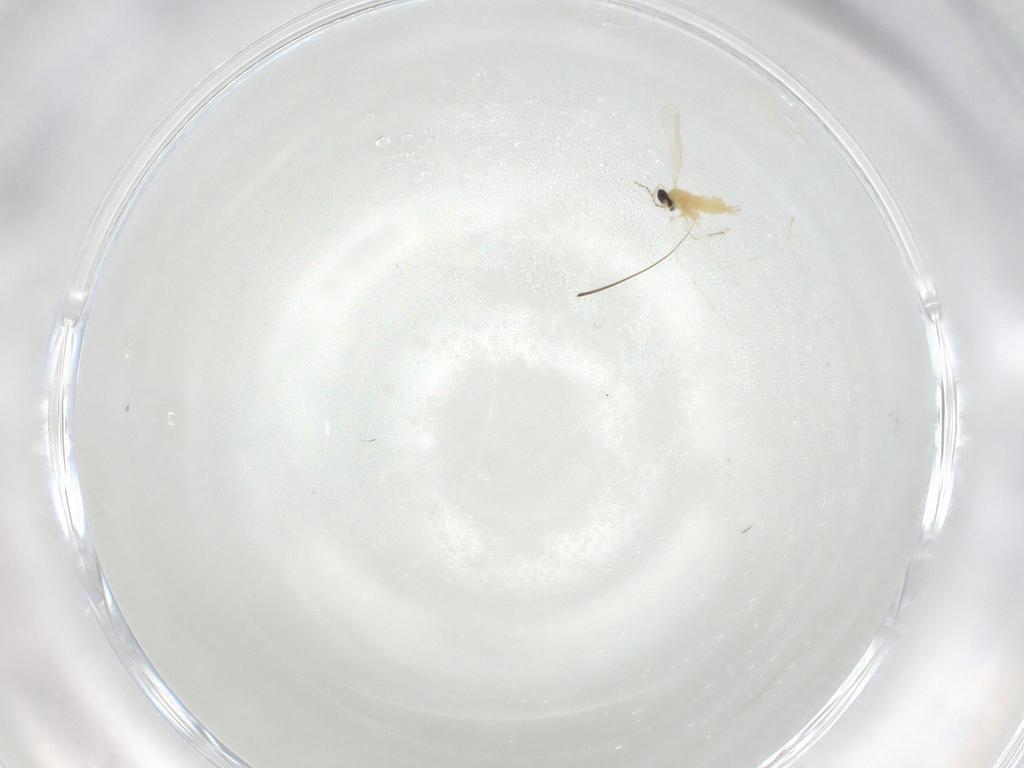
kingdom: Animalia
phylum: Arthropoda
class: Insecta
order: Diptera
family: Cecidomyiidae
